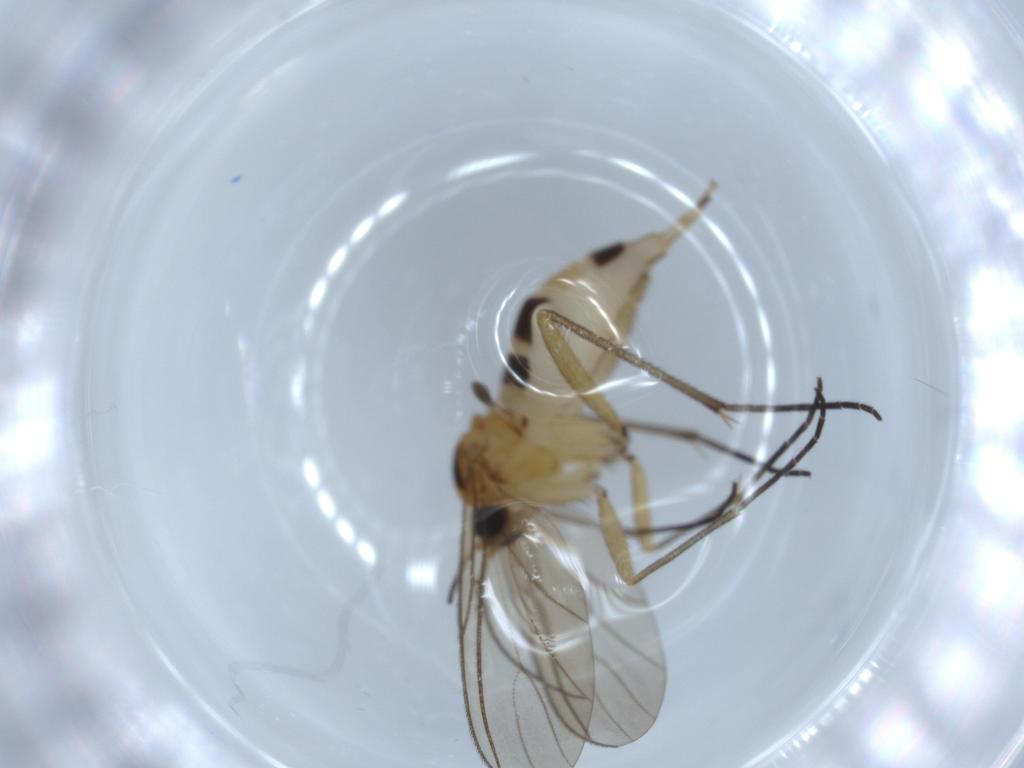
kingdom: Animalia
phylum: Arthropoda
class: Insecta
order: Diptera
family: Sciaridae
